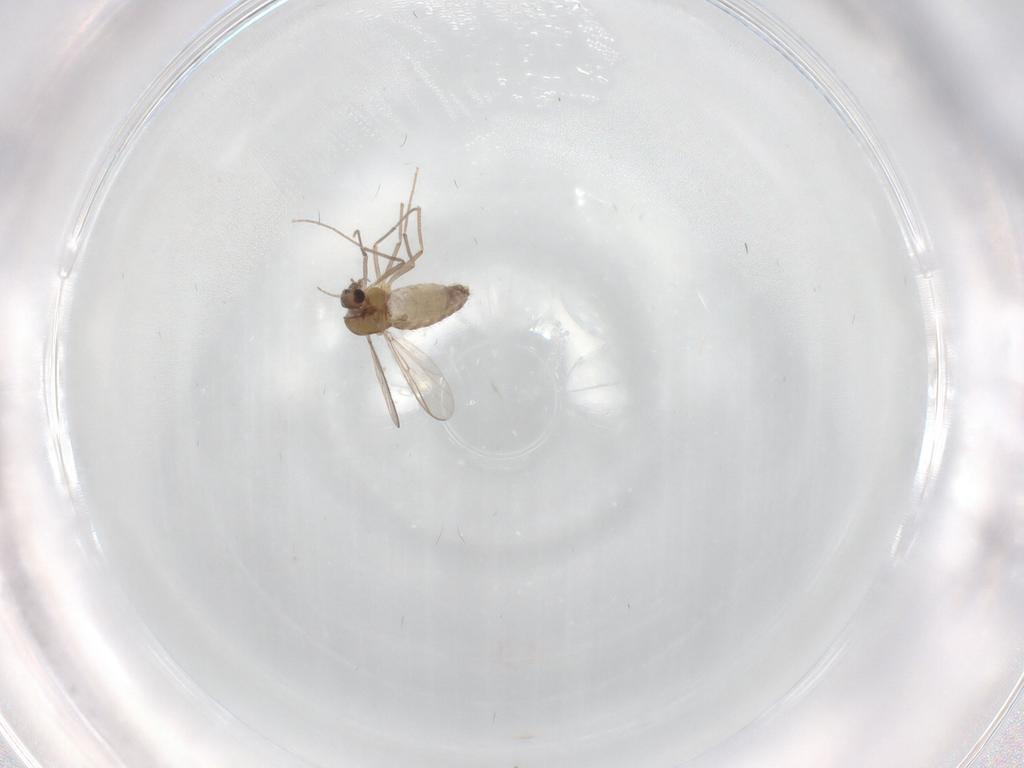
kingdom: Animalia
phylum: Arthropoda
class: Insecta
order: Diptera
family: Chironomidae
